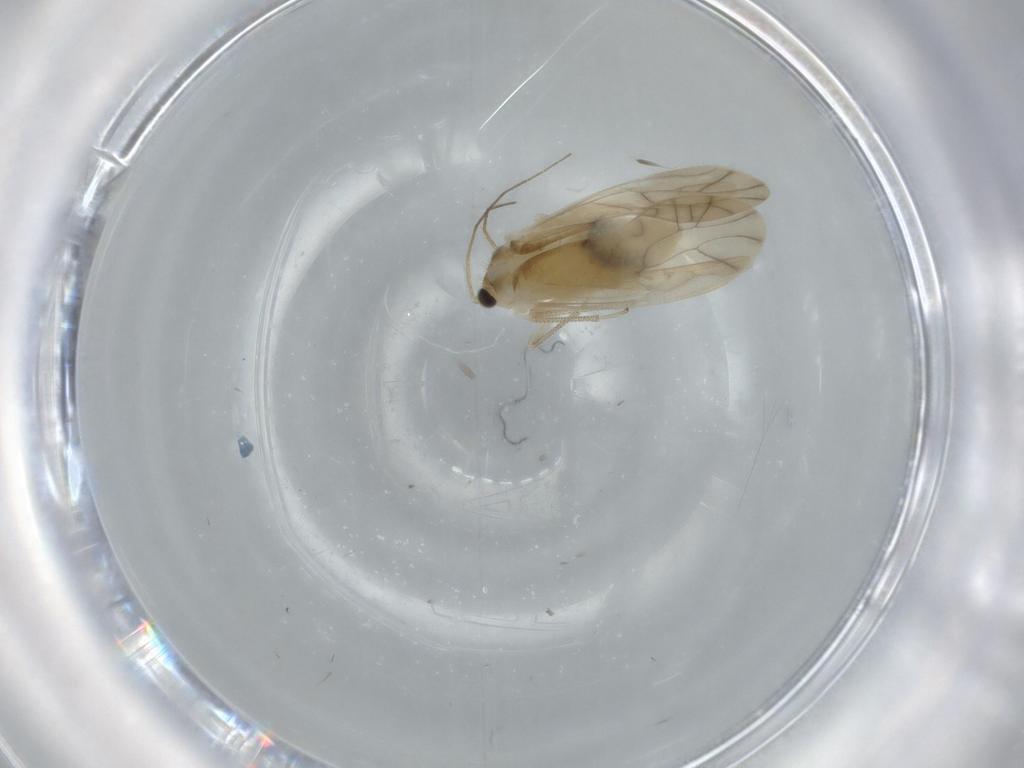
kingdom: Animalia
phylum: Arthropoda
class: Insecta
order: Psocodea
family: Caeciliusidae
